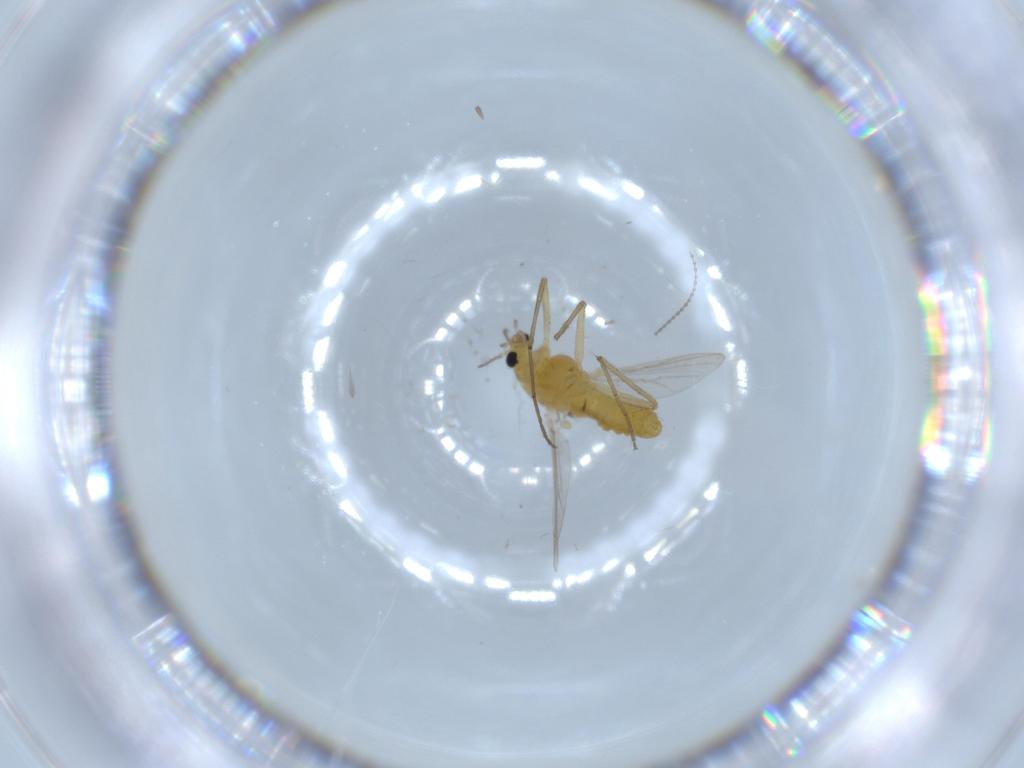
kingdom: Animalia
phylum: Arthropoda
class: Insecta
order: Diptera
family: Chironomidae
